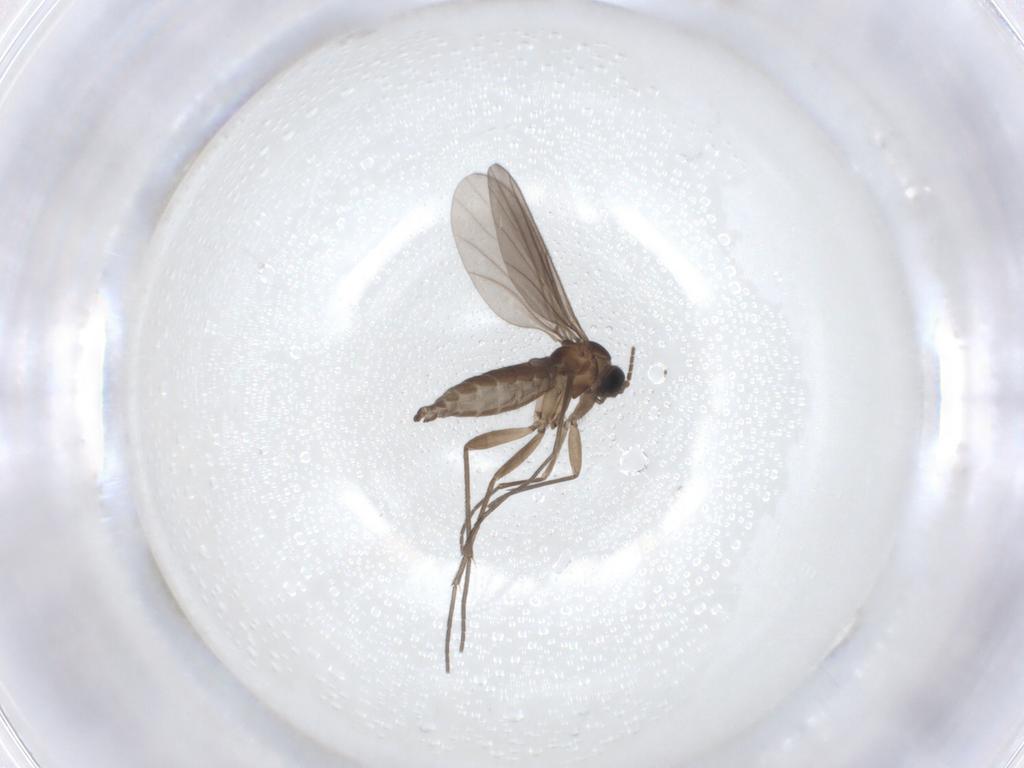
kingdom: Animalia
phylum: Arthropoda
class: Insecta
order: Diptera
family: Sciaridae
